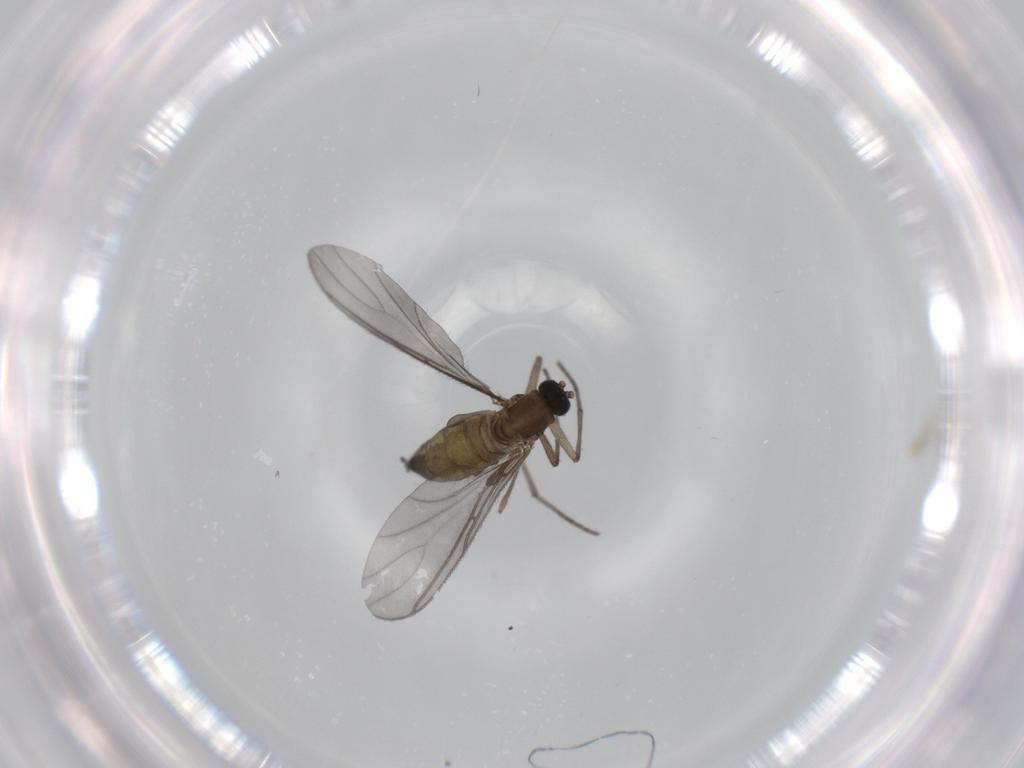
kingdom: Animalia
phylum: Arthropoda
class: Insecta
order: Diptera
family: Sciaridae
